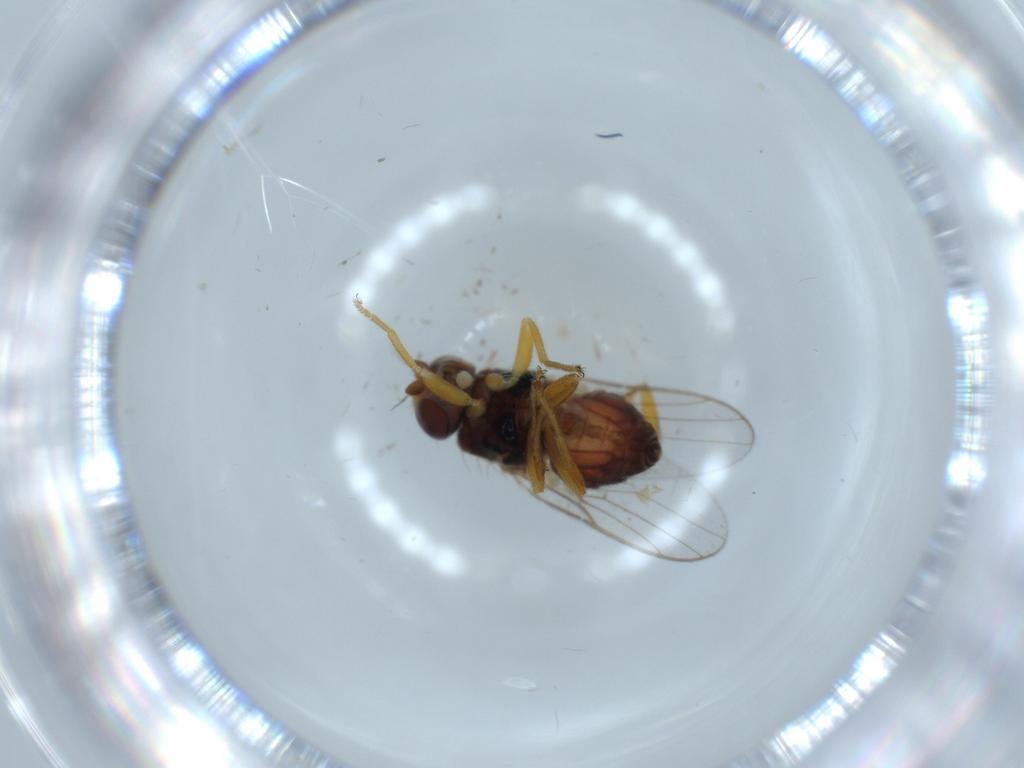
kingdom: Animalia
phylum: Arthropoda
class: Insecta
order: Diptera
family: Chloropidae
